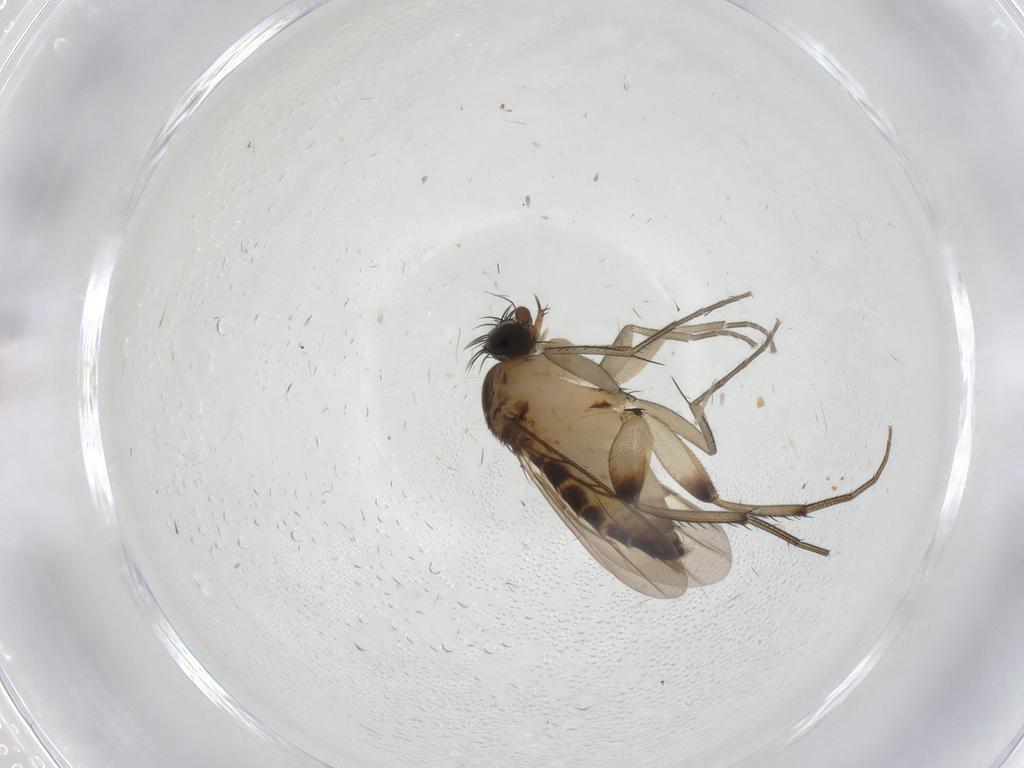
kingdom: Animalia
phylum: Arthropoda
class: Insecta
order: Diptera
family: Phoridae
